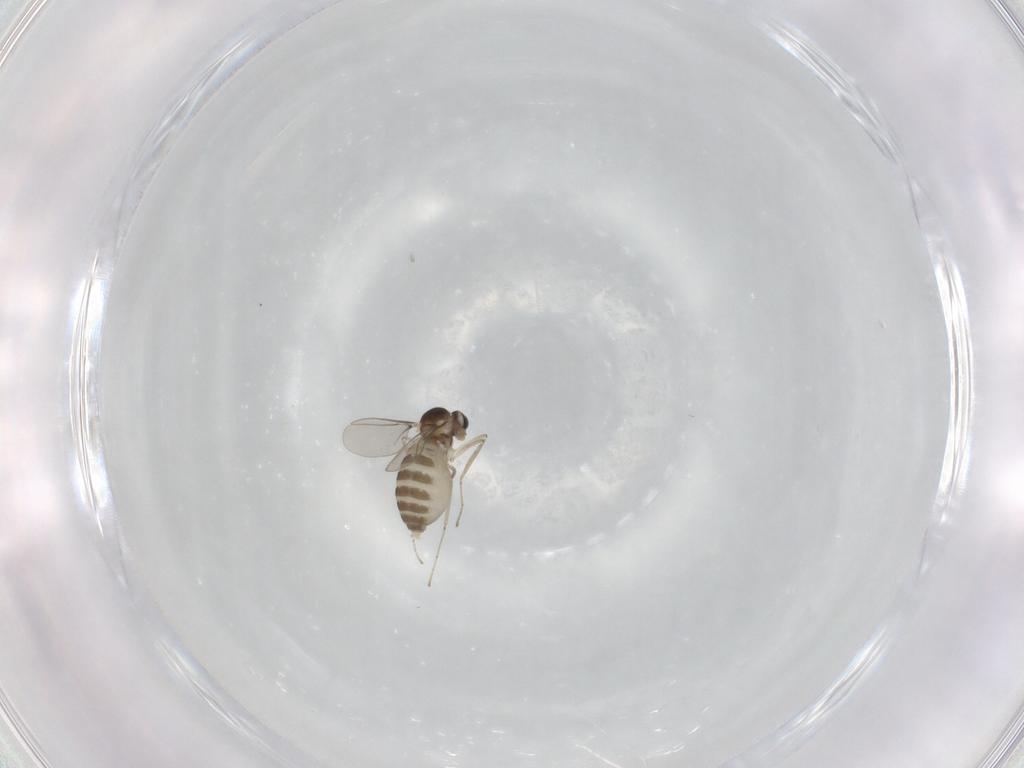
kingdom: Animalia
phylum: Arthropoda
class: Insecta
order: Diptera
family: Cecidomyiidae
